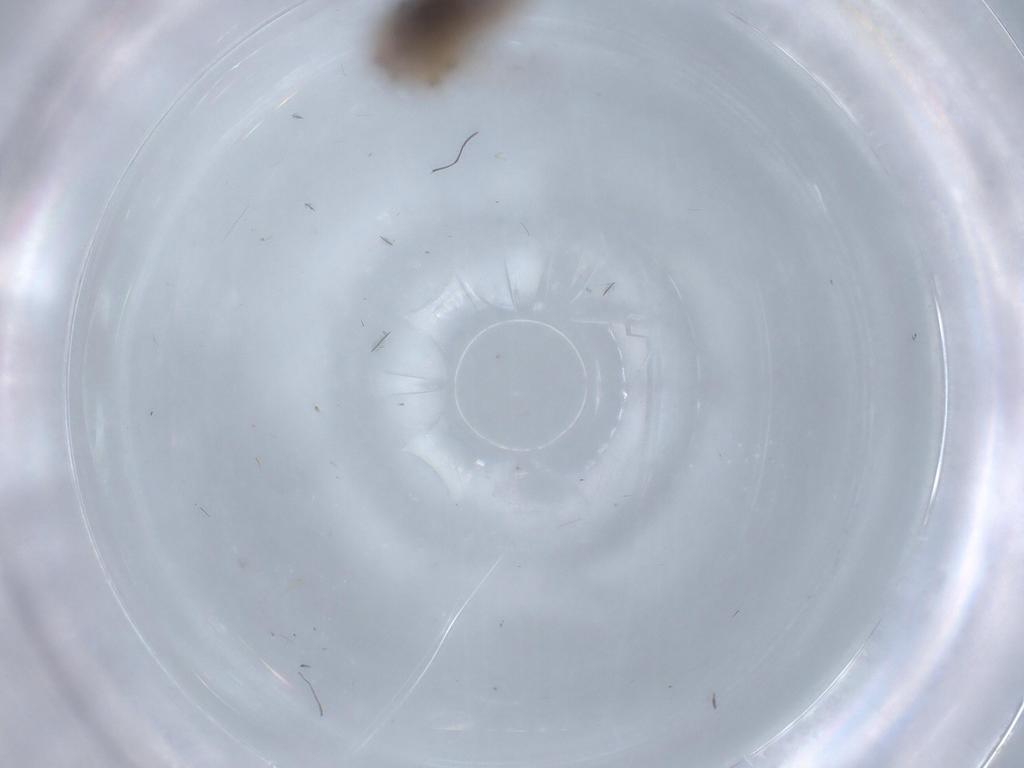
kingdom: Animalia
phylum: Arthropoda
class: Insecta
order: Psocodea
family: Lepidopsocidae
